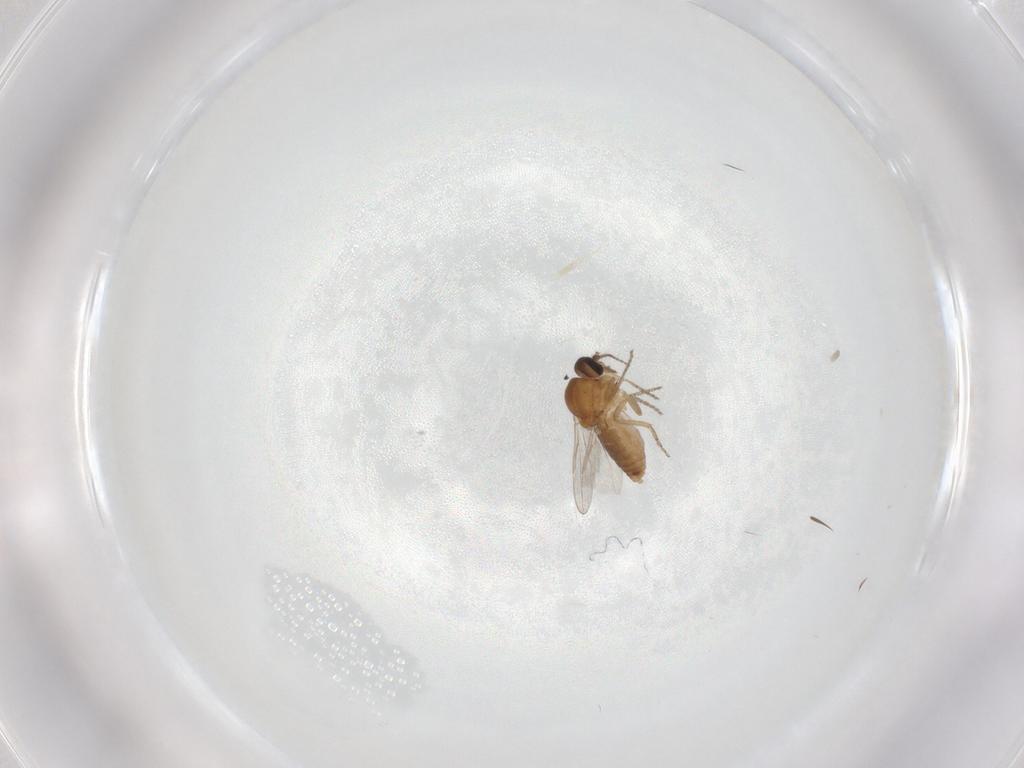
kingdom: Animalia
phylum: Arthropoda
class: Insecta
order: Diptera
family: Ceratopogonidae
